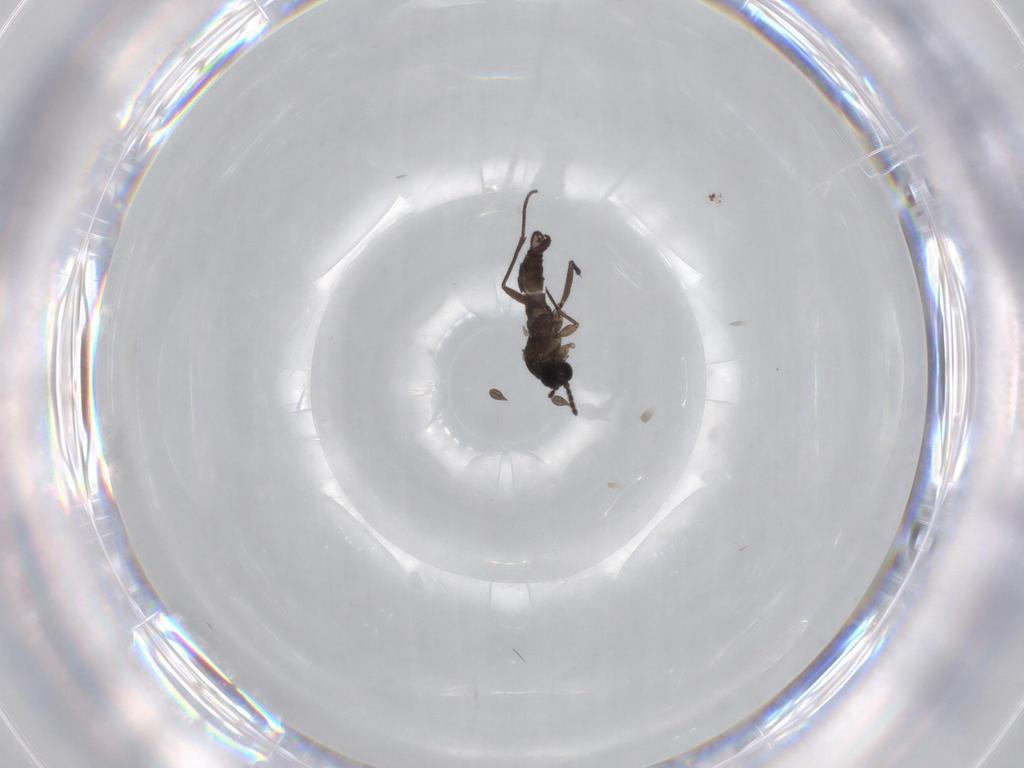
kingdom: Animalia
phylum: Arthropoda
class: Insecta
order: Diptera
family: Sciaridae
